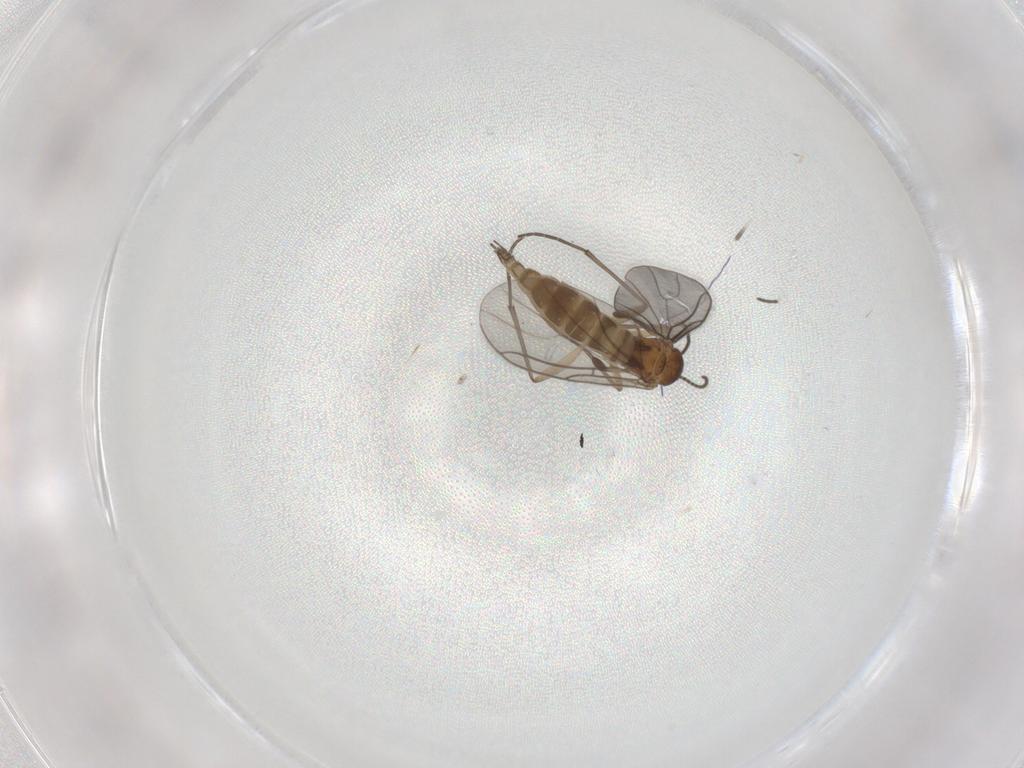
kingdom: Animalia
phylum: Arthropoda
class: Insecta
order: Diptera
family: Sciaridae
